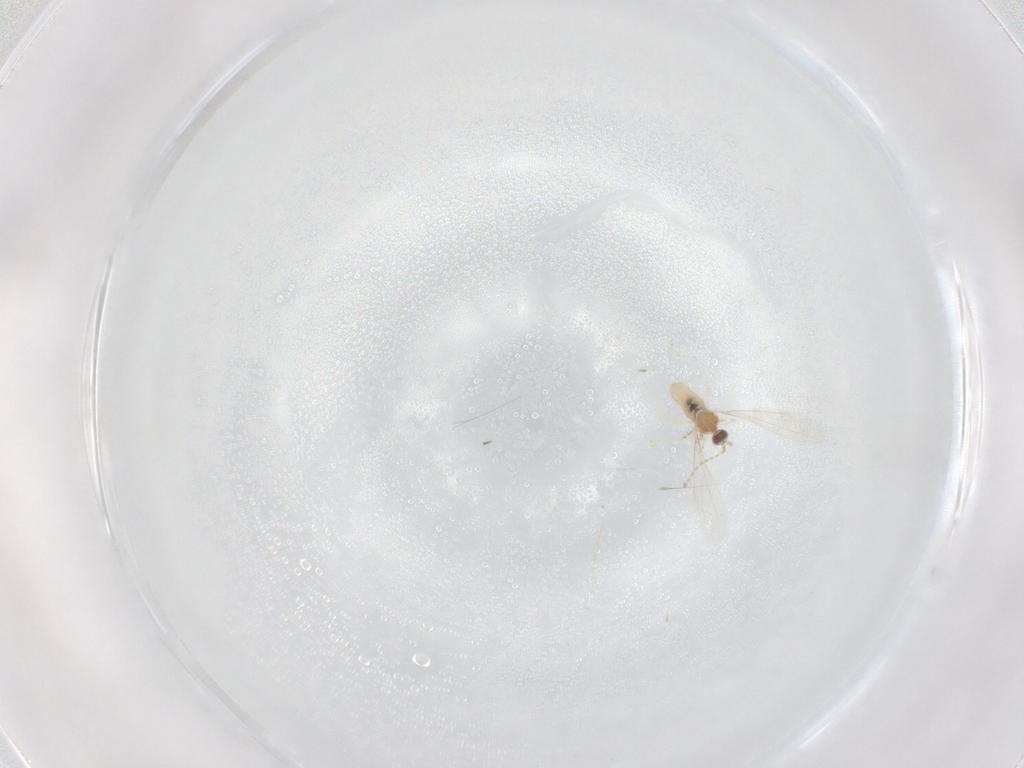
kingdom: Animalia
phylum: Arthropoda
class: Insecta
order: Diptera
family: Cecidomyiidae
